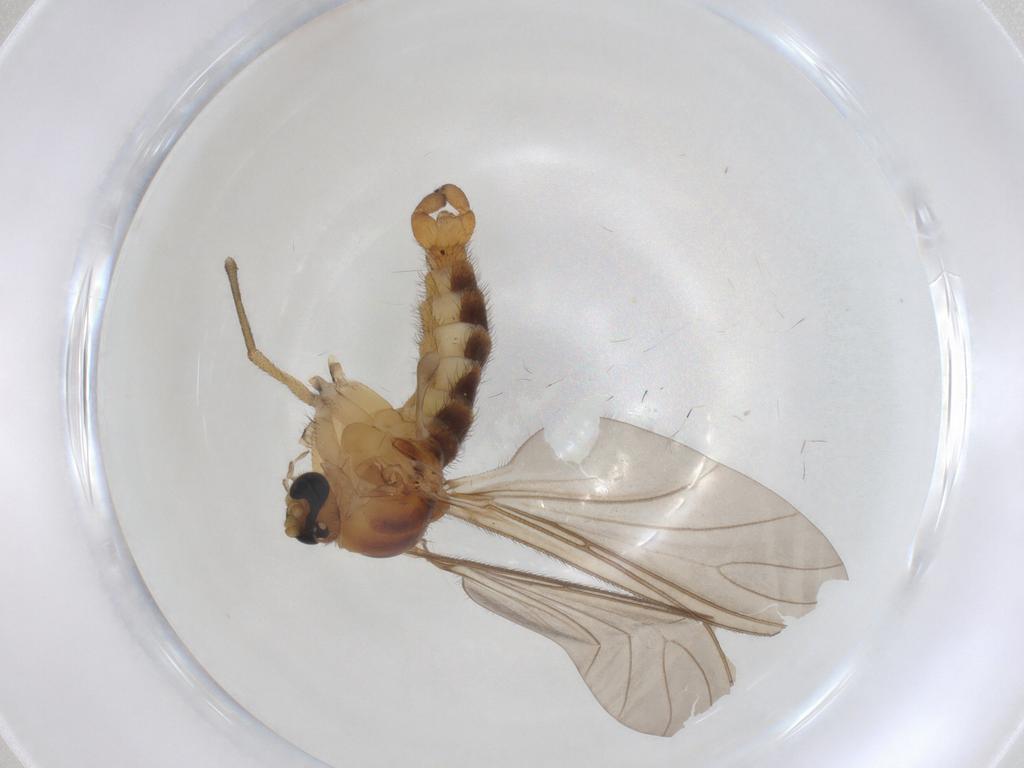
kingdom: Animalia
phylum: Arthropoda
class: Insecta
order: Diptera
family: Sciaridae
